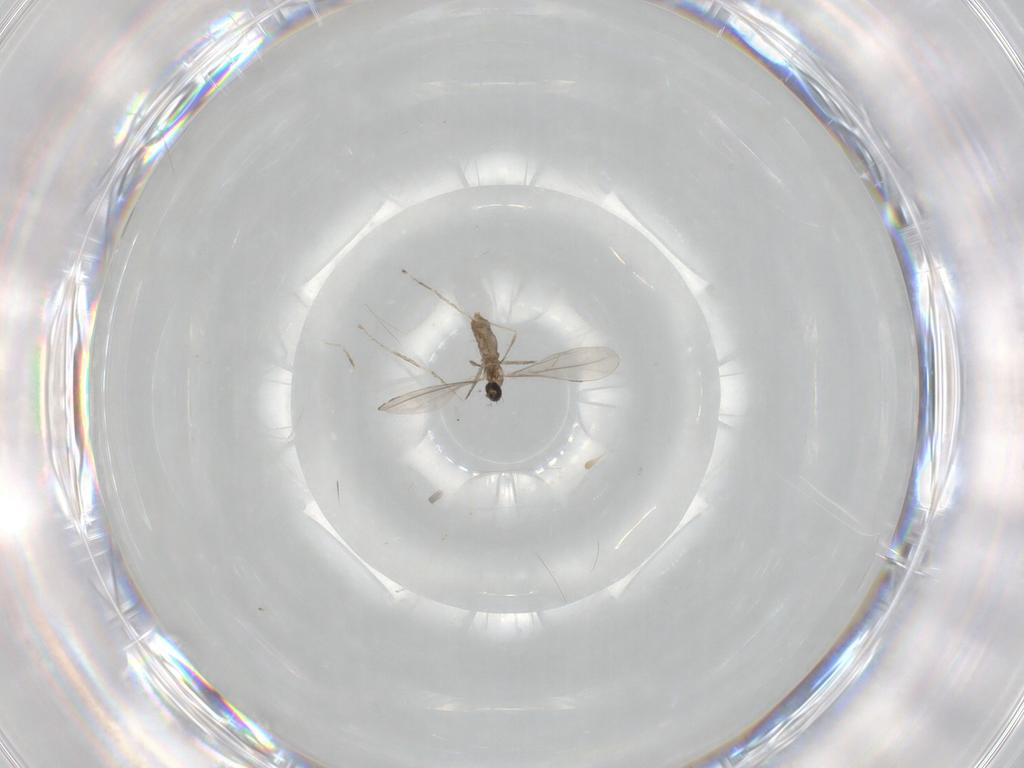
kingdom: Animalia
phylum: Arthropoda
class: Insecta
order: Diptera
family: Cecidomyiidae
